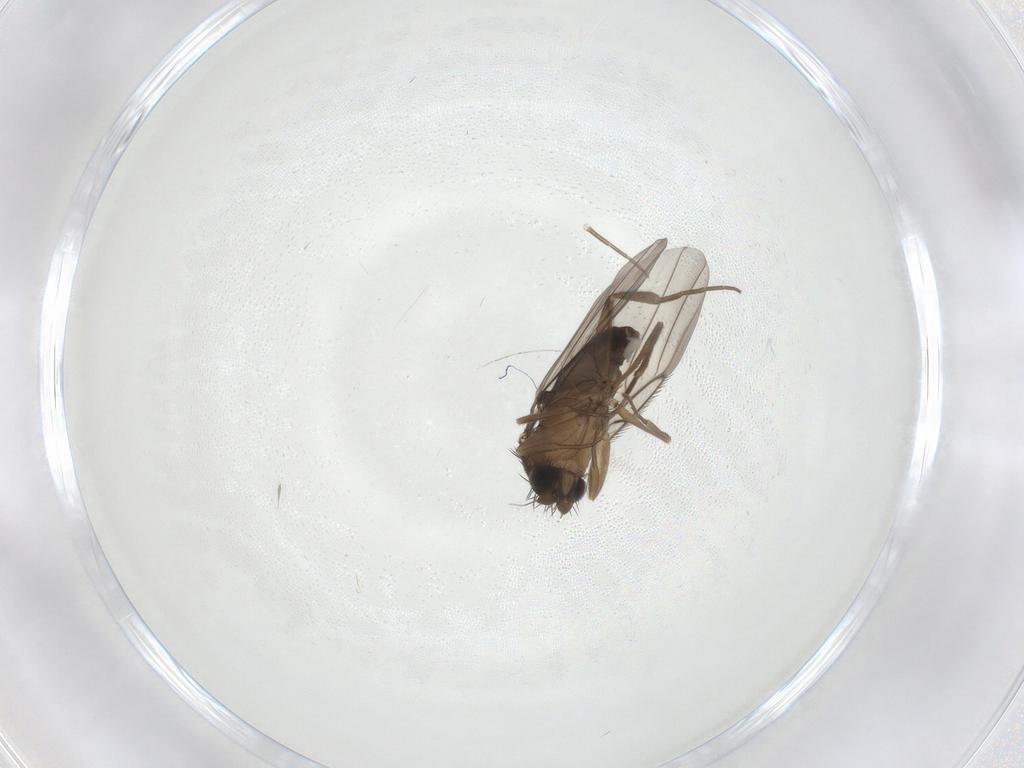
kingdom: Animalia
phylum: Arthropoda
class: Insecta
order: Diptera
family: Phoridae
